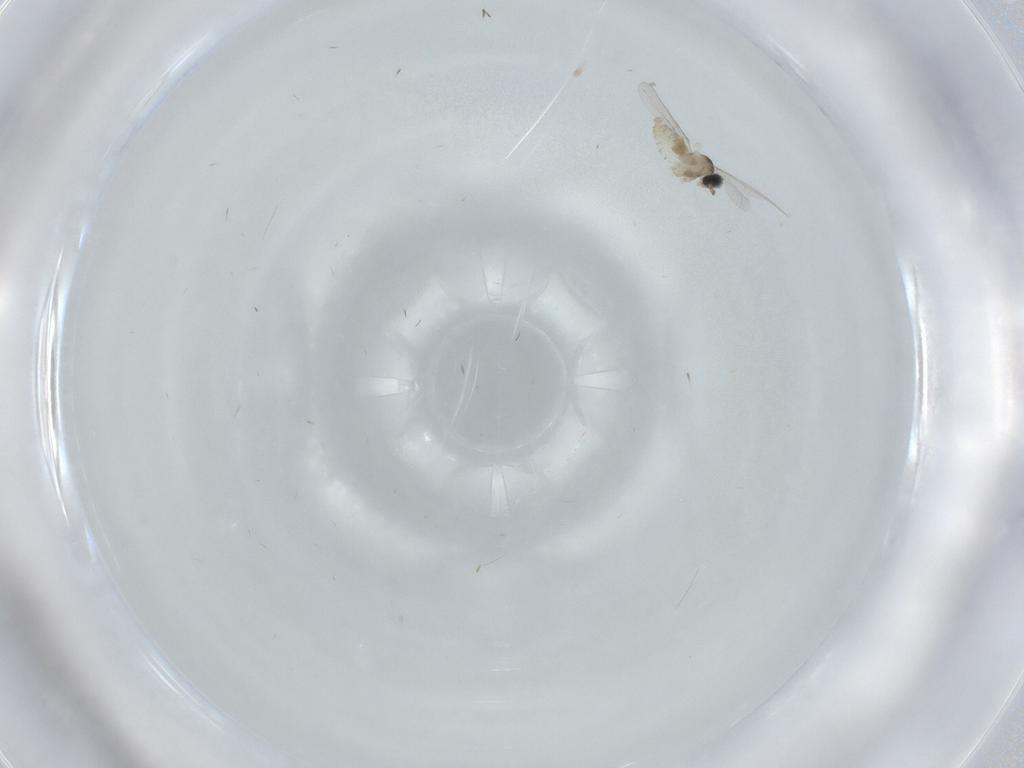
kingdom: Animalia
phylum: Arthropoda
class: Insecta
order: Diptera
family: Cecidomyiidae
